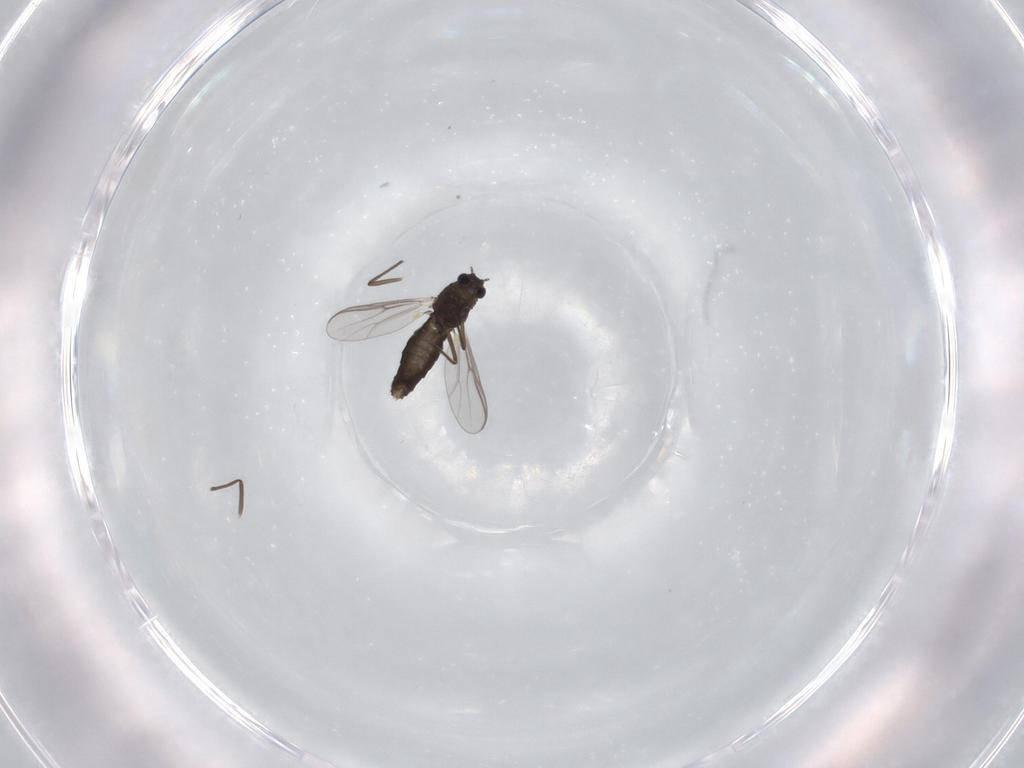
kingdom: Animalia
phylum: Arthropoda
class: Insecta
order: Diptera
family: Chironomidae
